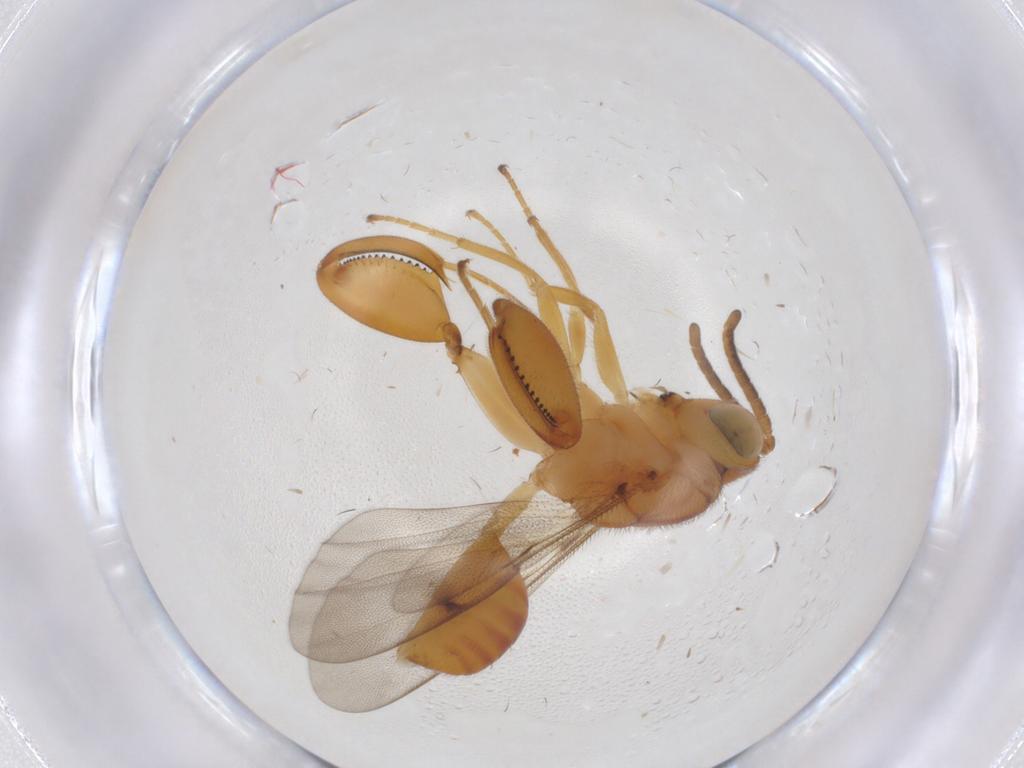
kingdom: Animalia
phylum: Arthropoda
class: Insecta
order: Hymenoptera
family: Chalcididae
